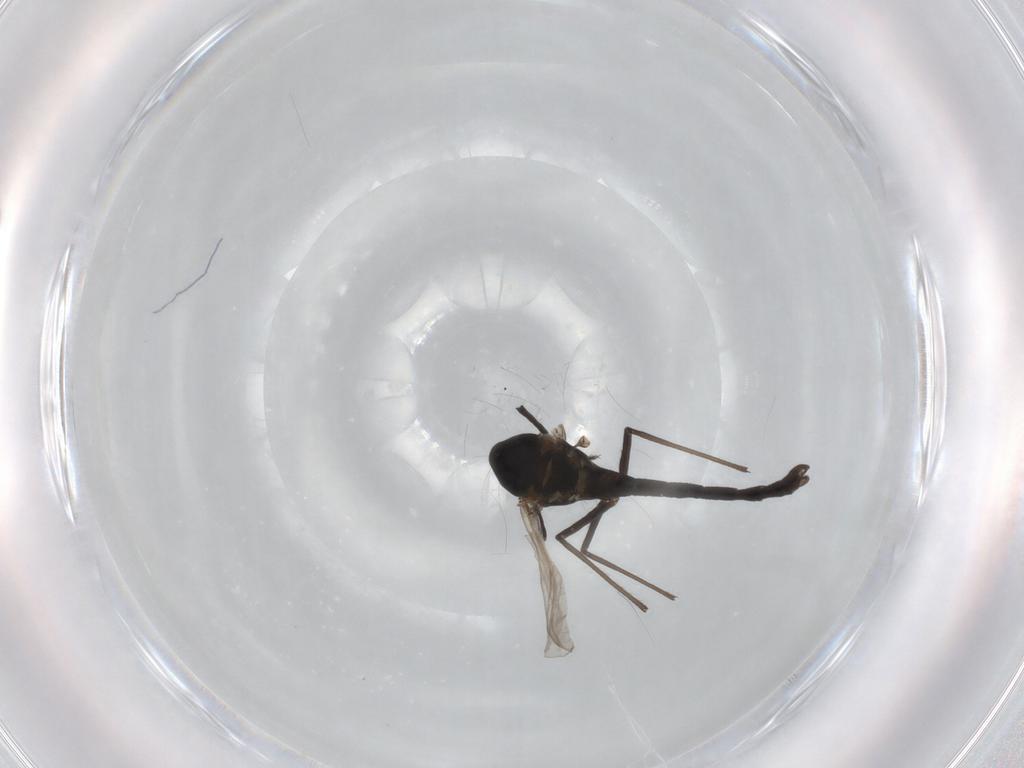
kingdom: Animalia
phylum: Arthropoda
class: Insecta
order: Diptera
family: Chironomidae
